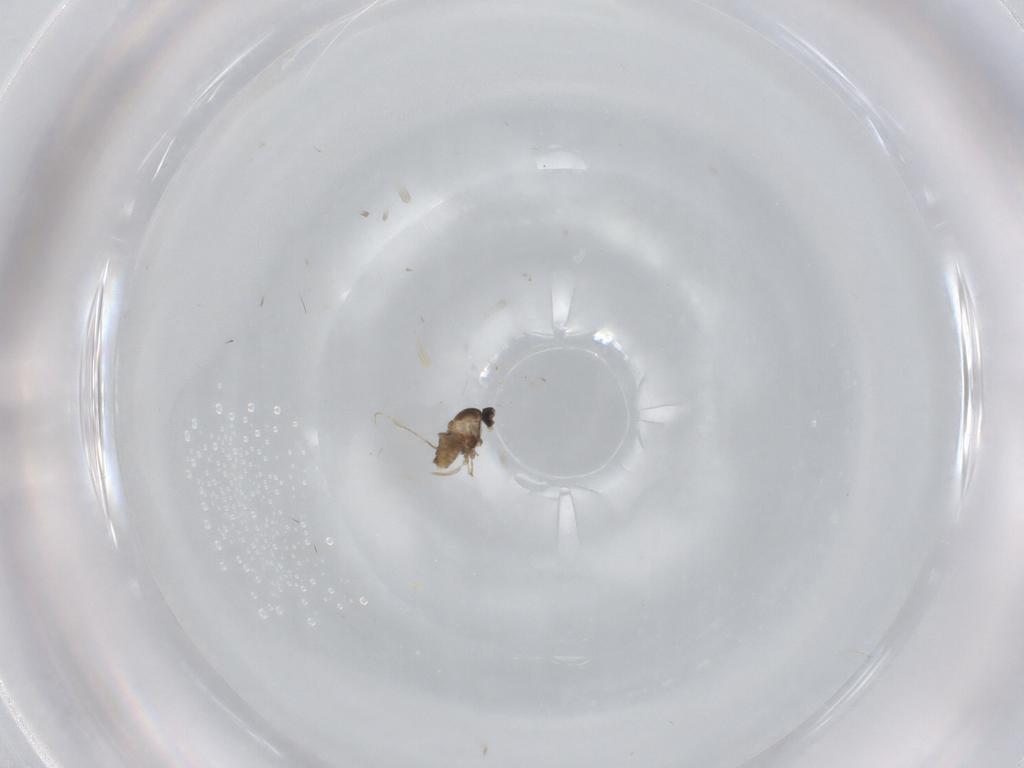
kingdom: Animalia
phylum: Arthropoda
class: Insecta
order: Diptera
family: Cecidomyiidae
